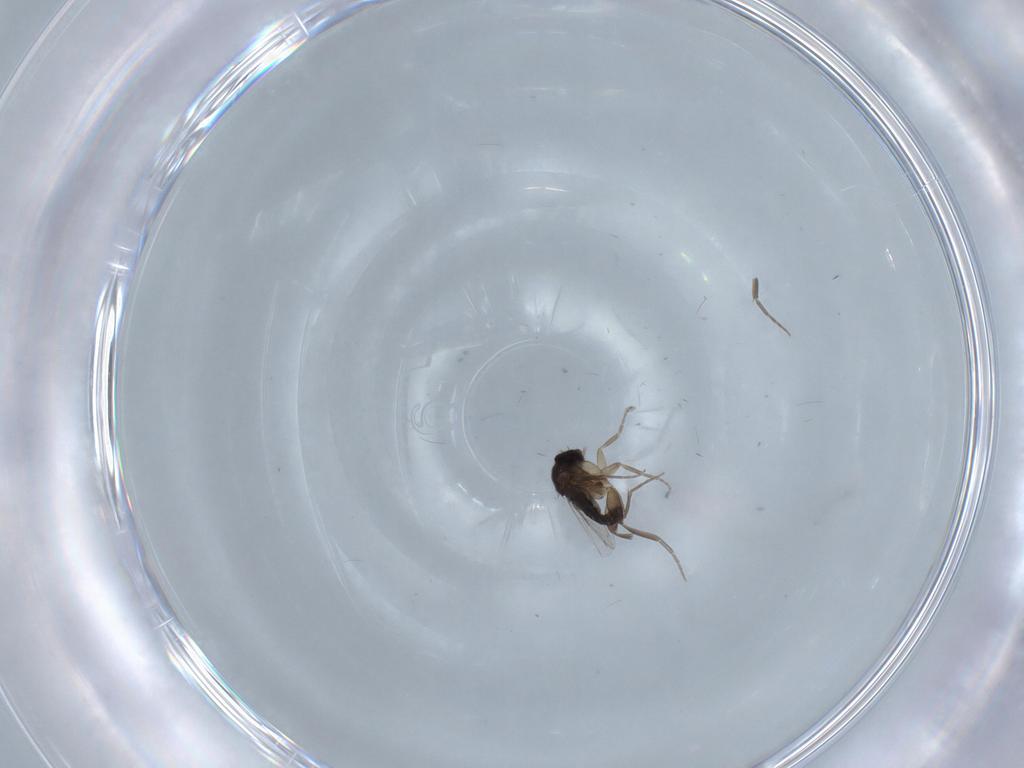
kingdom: Animalia
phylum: Arthropoda
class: Insecta
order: Diptera
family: Phoridae
